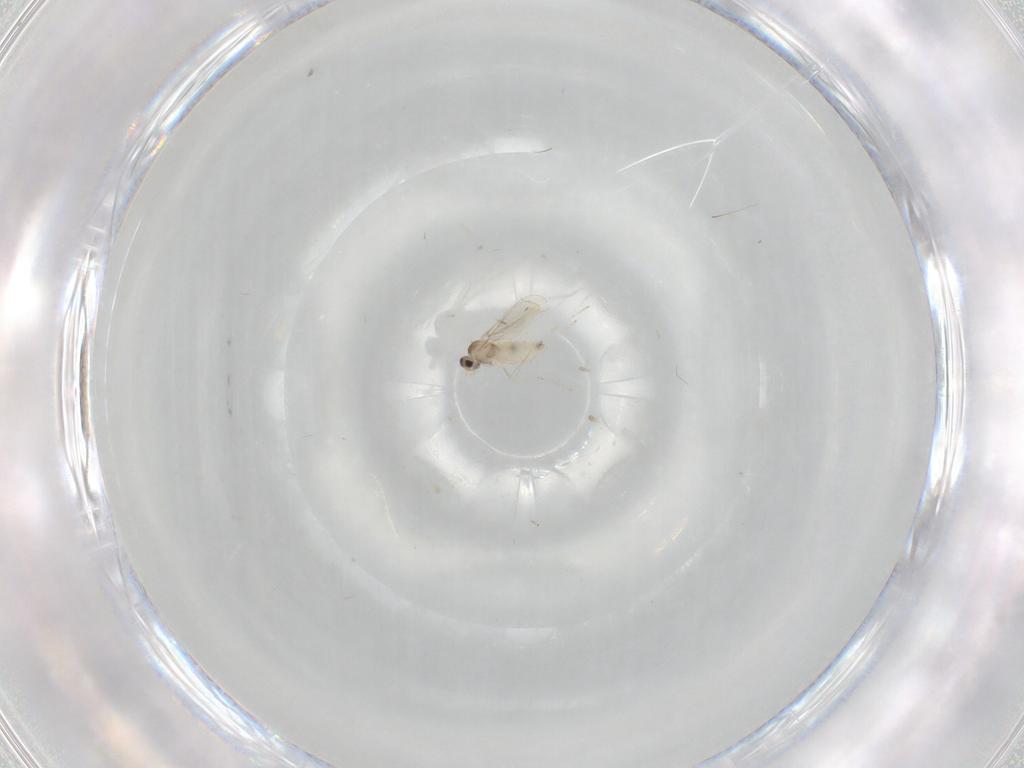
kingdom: Animalia
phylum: Arthropoda
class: Insecta
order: Diptera
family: Cecidomyiidae
